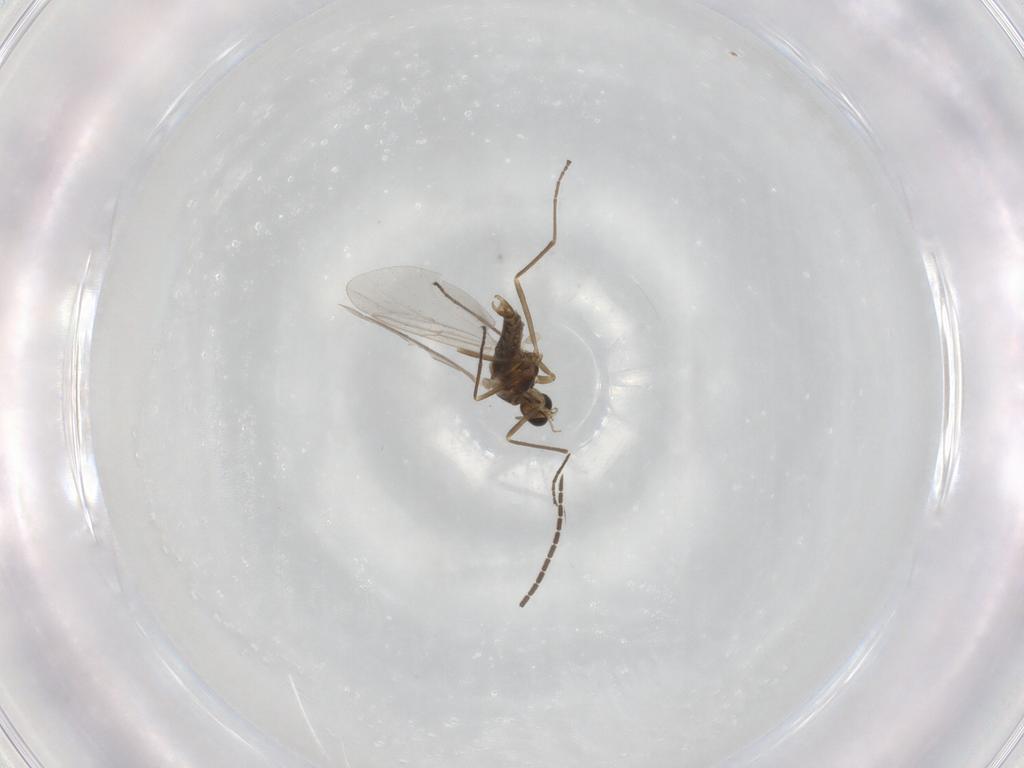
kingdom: Animalia
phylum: Arthropoda
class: Insecta
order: Diptera
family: Cecidomyiidae
